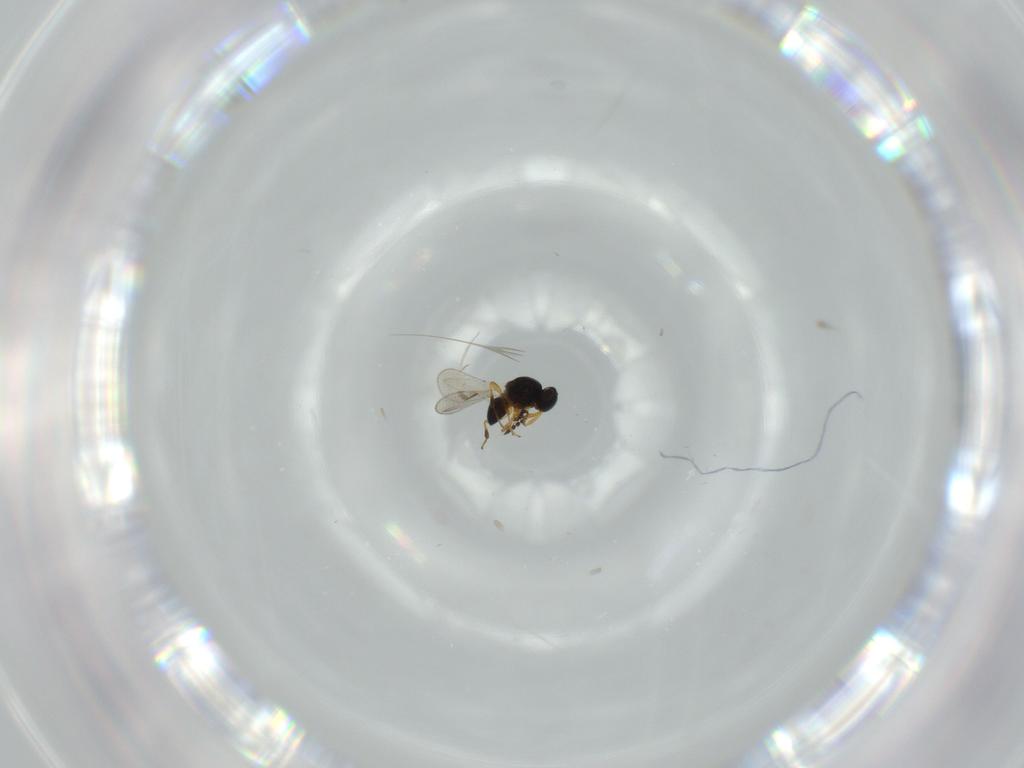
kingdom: Animalia
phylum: Arthropoda
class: Insecta
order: Hymenoptera
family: Platygastridae
